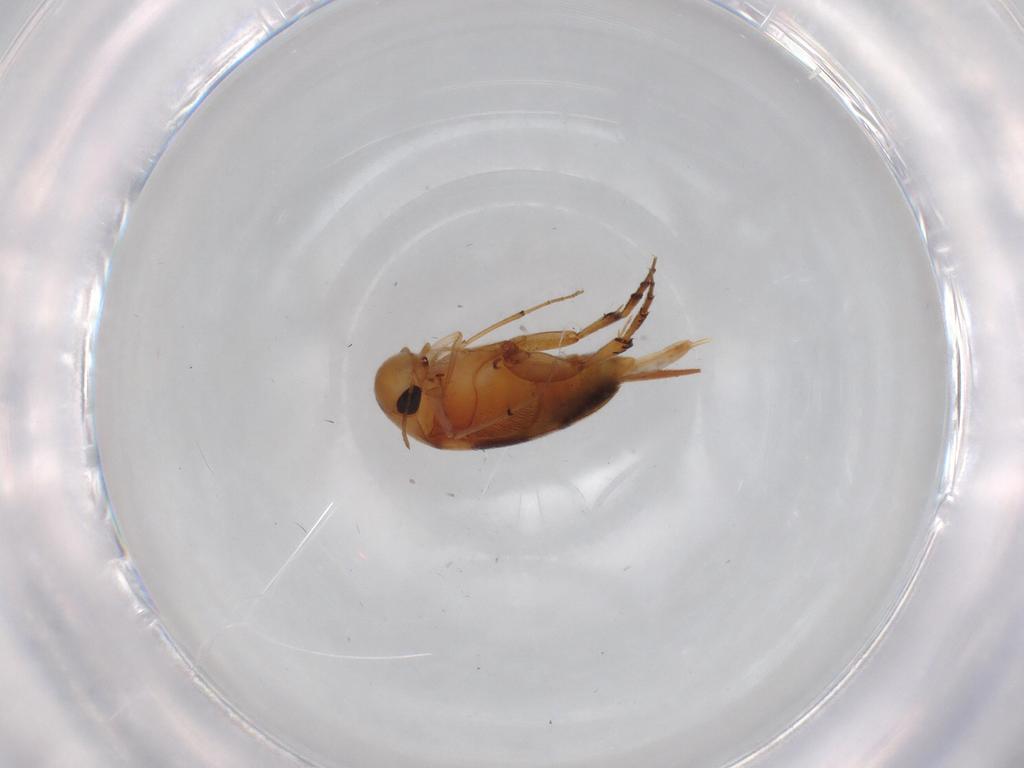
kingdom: Animalia
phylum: Arthropoda
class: Insecta
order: Coleoptera
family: Mordellidae
